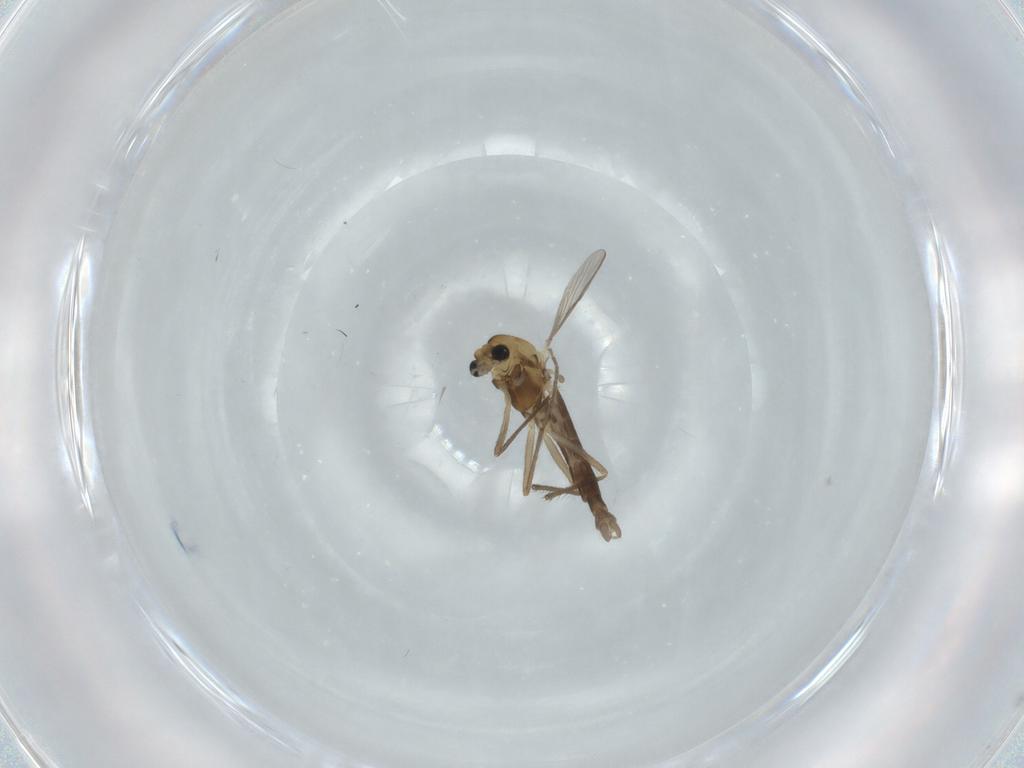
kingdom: Animalia
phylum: Arthropoda
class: Insecta
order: Diptera
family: Chironomidae
